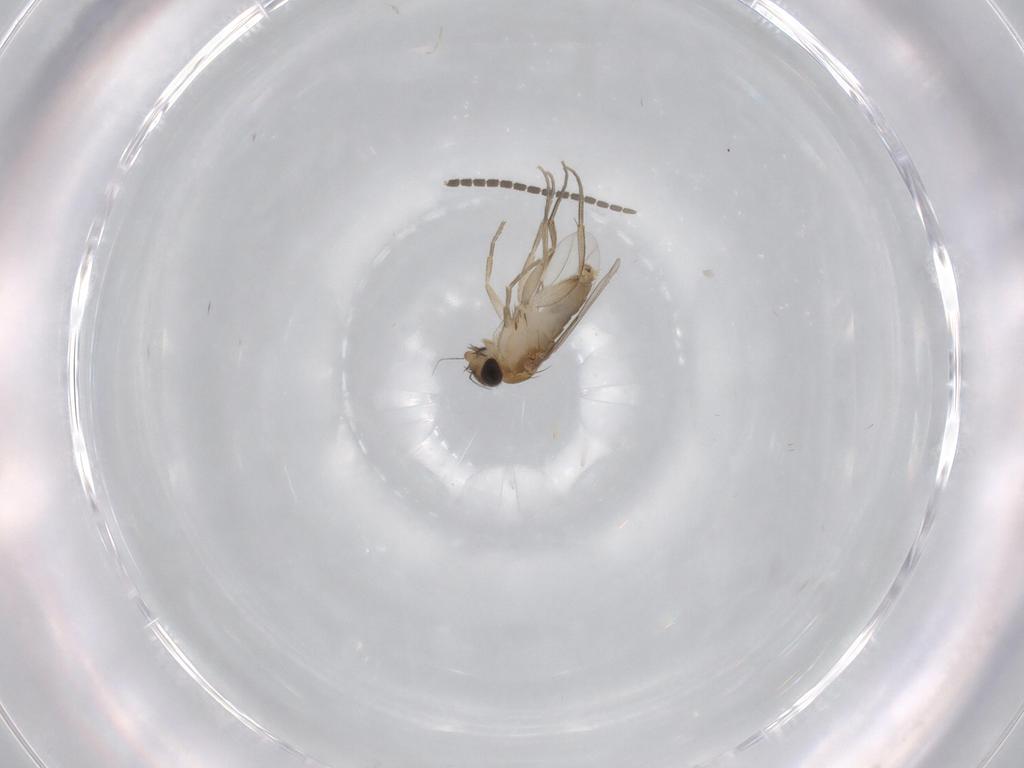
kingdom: Animalia
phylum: Arthropoda
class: Insecta
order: Diptera
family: Sciaridae
